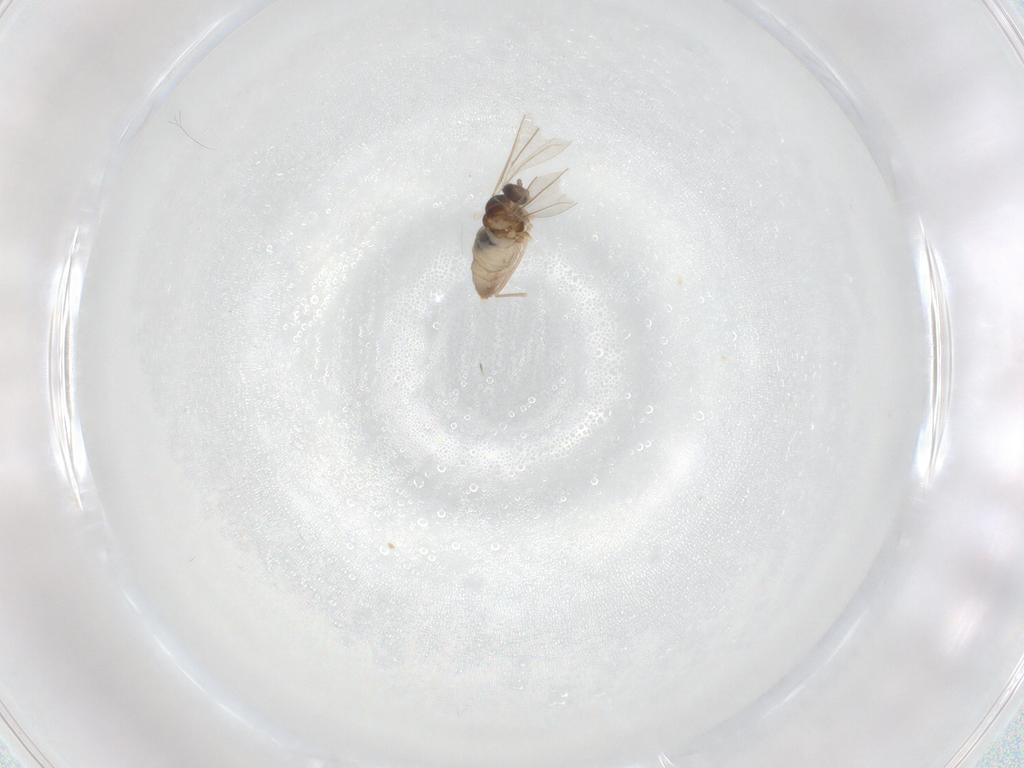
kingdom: Animalia
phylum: Arthropoda
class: Insecta
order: Diptera
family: Cecidomyiidae
